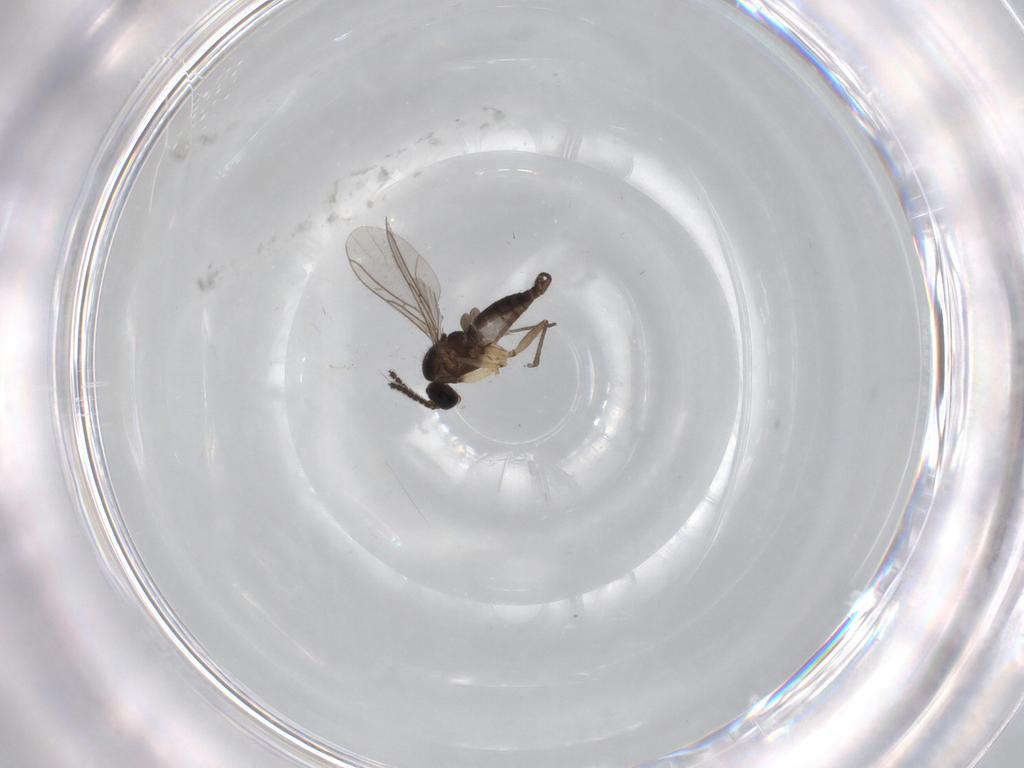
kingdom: Animalia
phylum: Arthropoda
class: Insecta
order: Diptera
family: Sciaridae
